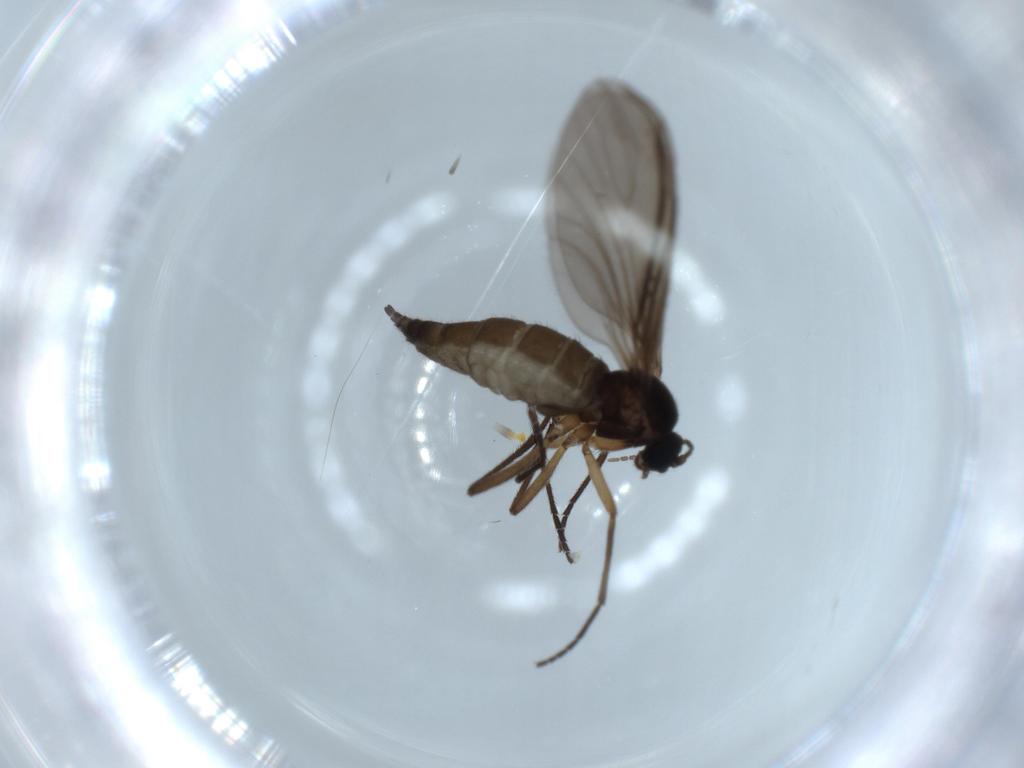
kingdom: Animalia
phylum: Arthropoda
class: Insecta
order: Diptera
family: Sciaridae
